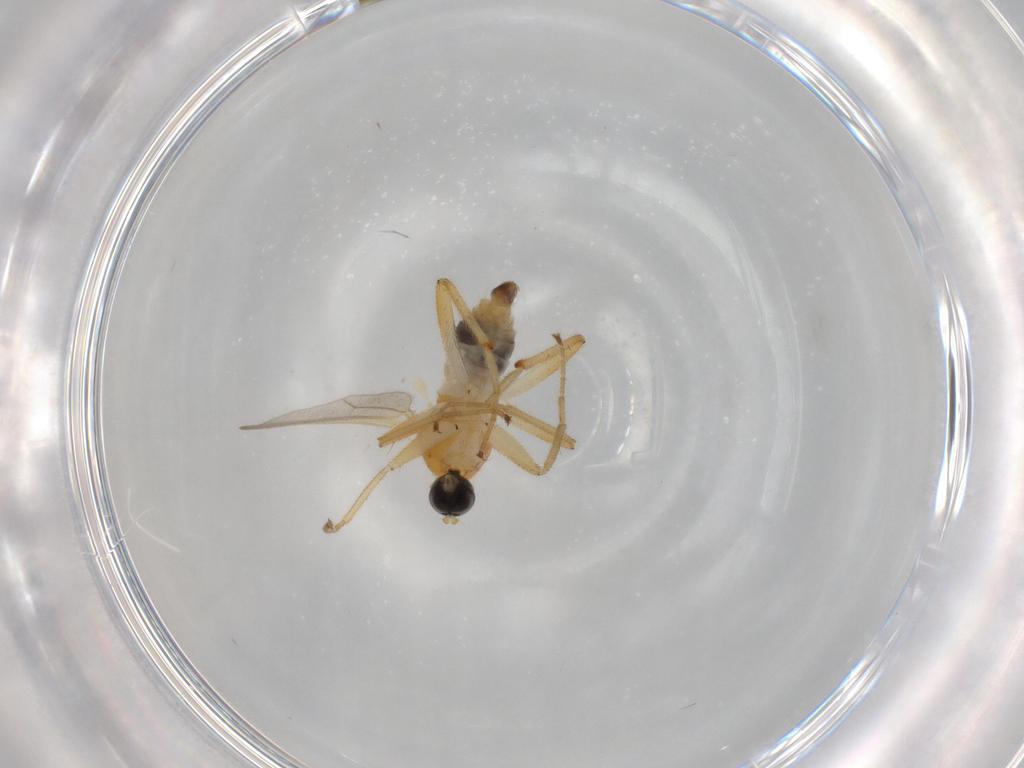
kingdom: Animalia
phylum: Arthropoda
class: Insecta
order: Diptera
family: Hybotidae
